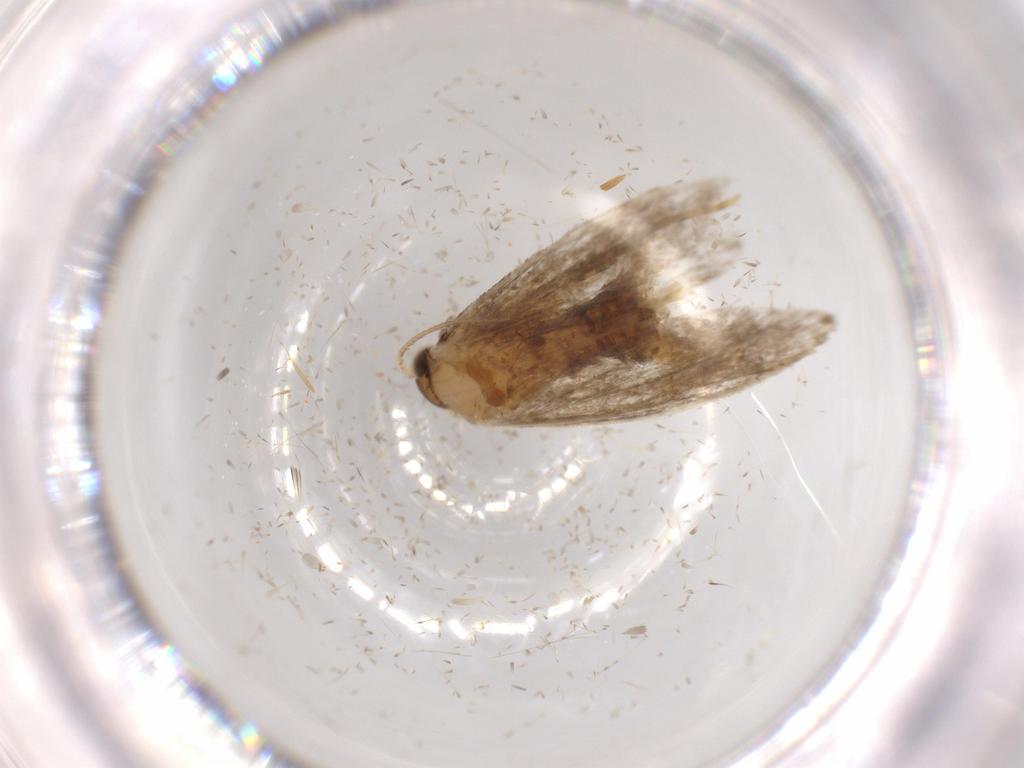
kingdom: Animalia
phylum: Arthropoda
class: Insecta
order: Lepidoptera
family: Tineidae
